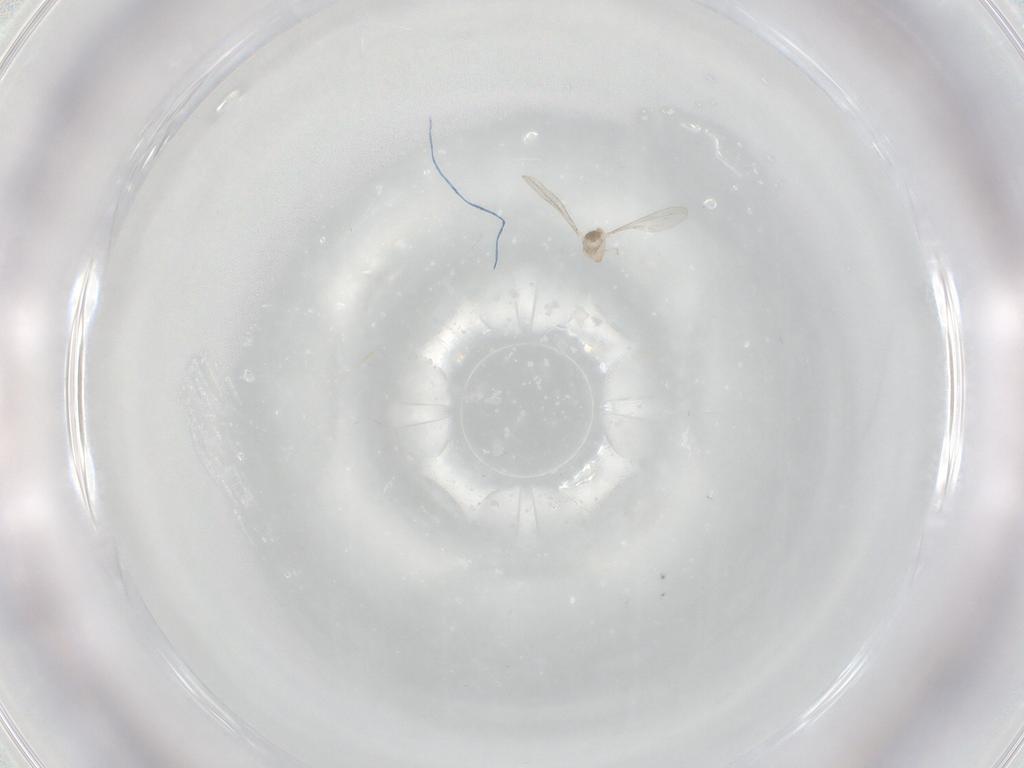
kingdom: Animalia
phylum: Arthropoda
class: Insecta
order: Diptera
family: Cecidomyiidae
